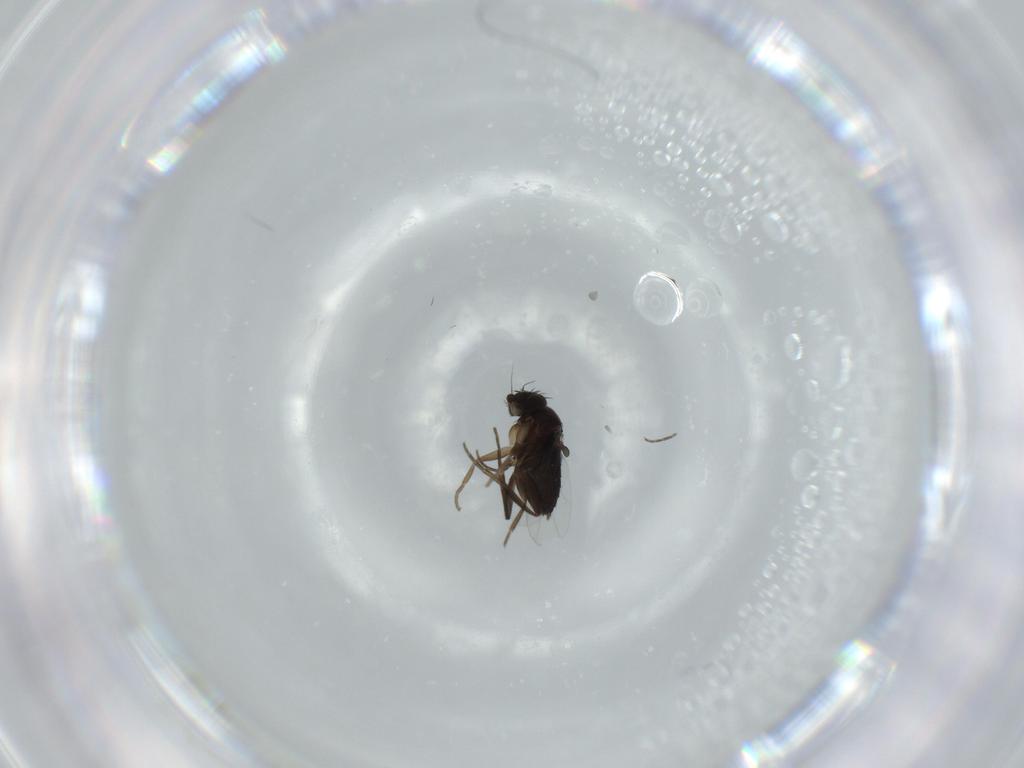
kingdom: Animalia
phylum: Arthropoda
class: Insecta
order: Diptera
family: Phoridae
